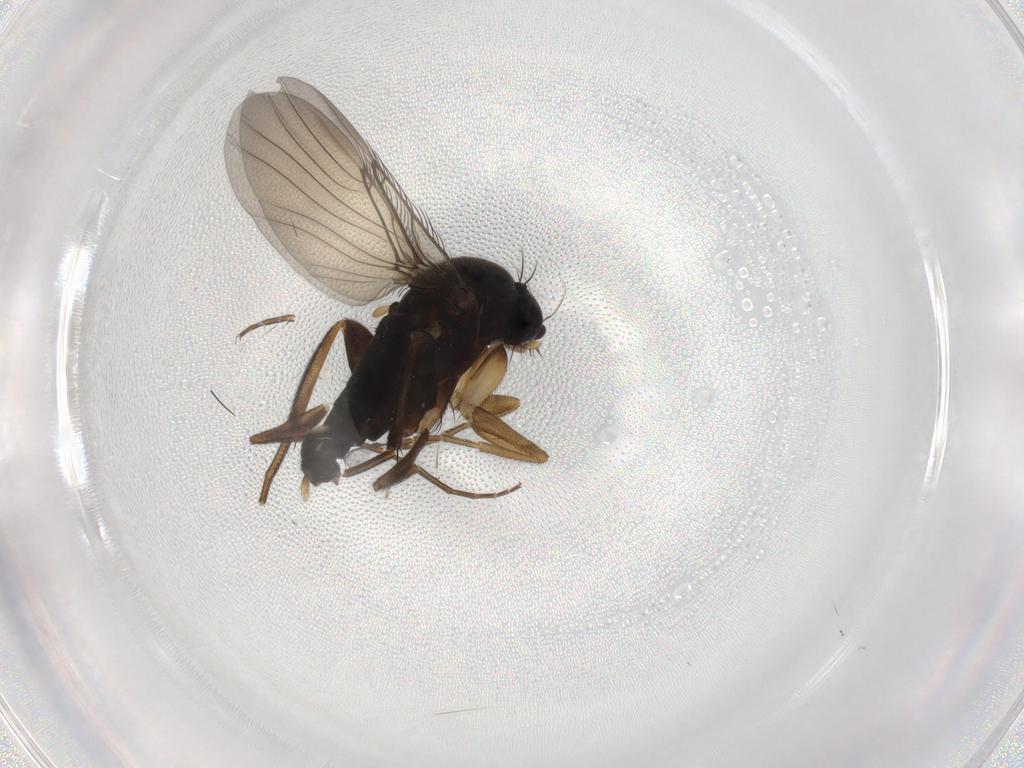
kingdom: Animalia
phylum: Arthropoda
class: Insecta
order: Diptera
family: Phoridae
